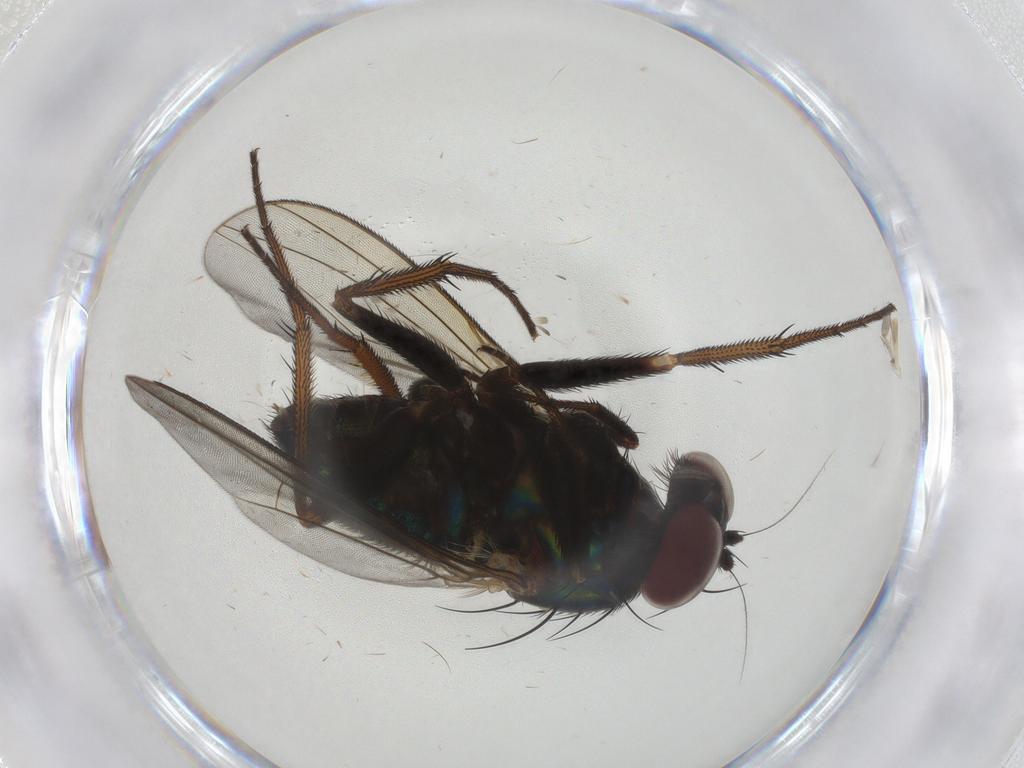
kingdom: Animalia
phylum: Arthropoda
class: Insecta
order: Diptera
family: Dolichopodidae
